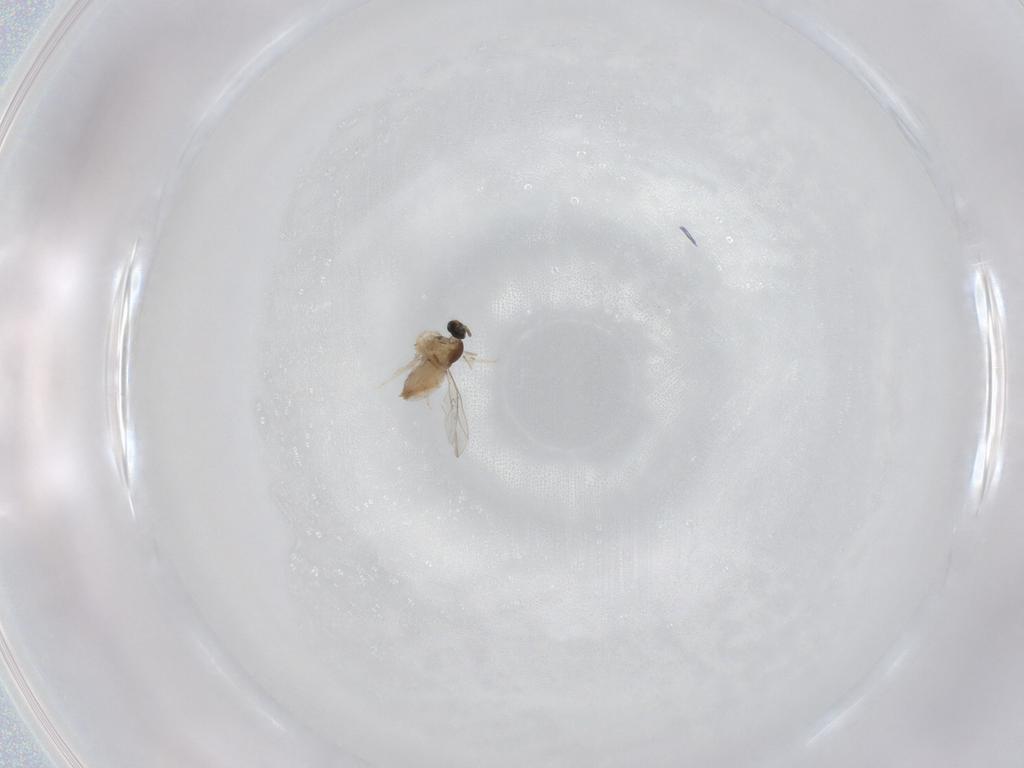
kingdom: Animalia
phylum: Arthropoda
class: Insecta
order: Diptera
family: Cecidomyiidae
